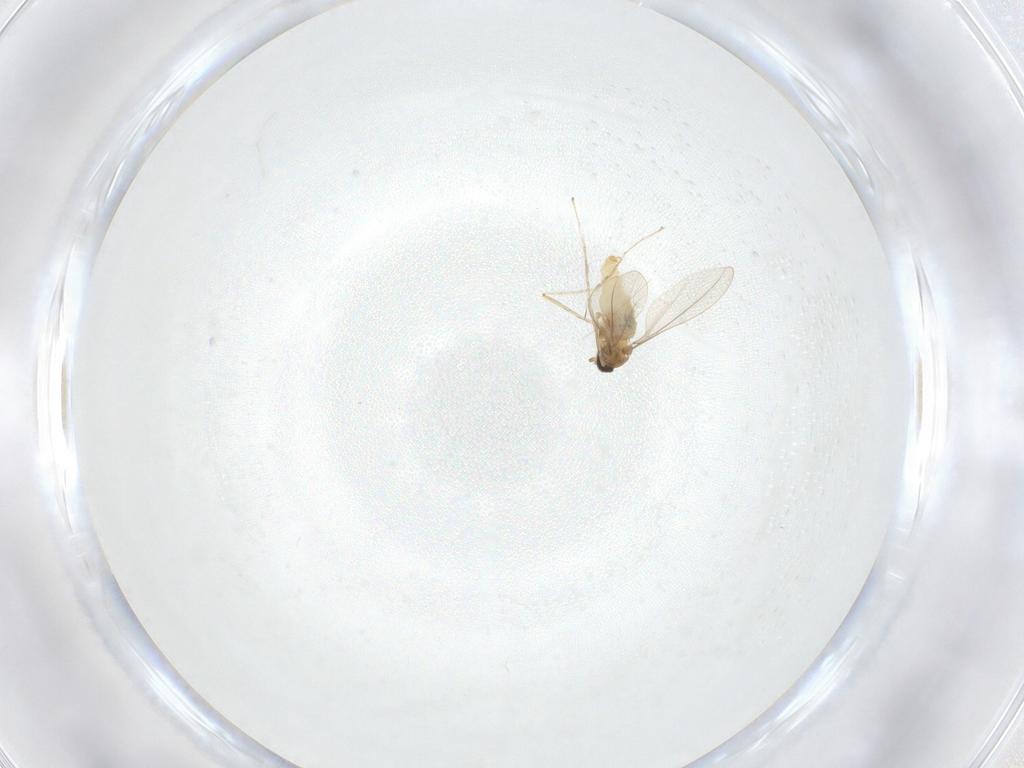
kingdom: Animalia
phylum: Arthropoda
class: Insecta
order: Diptera
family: Cecidomyiidae
